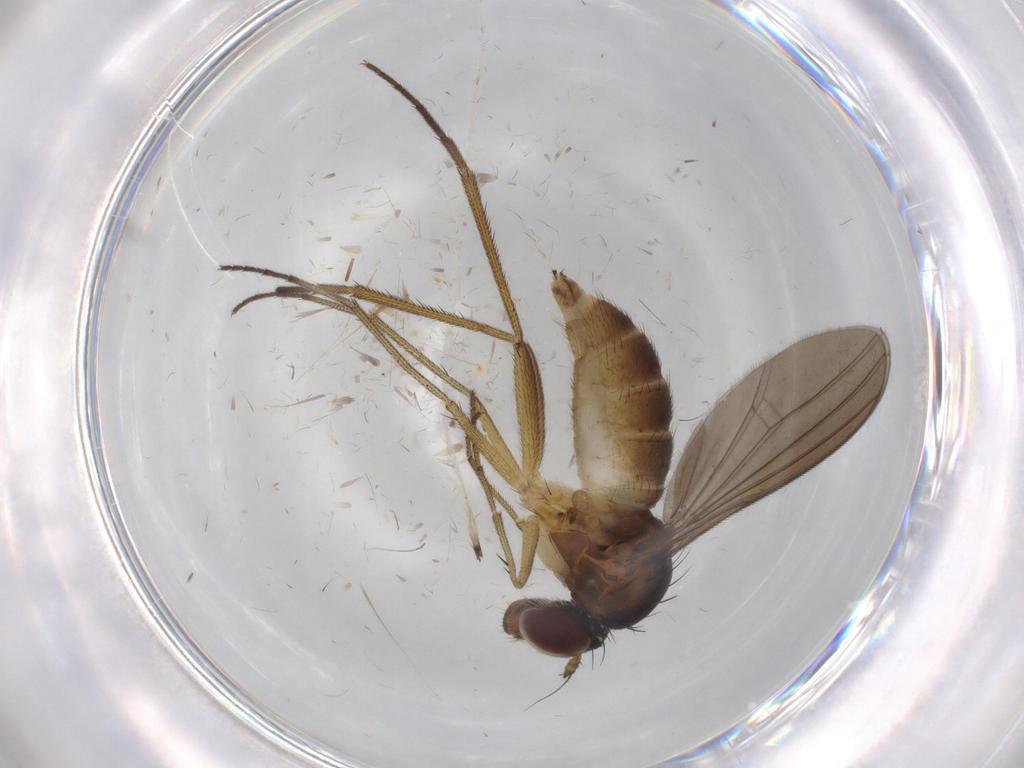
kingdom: Animalia
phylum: Arthropoda
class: Insecta
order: Diptera
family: Dolichopodidae
